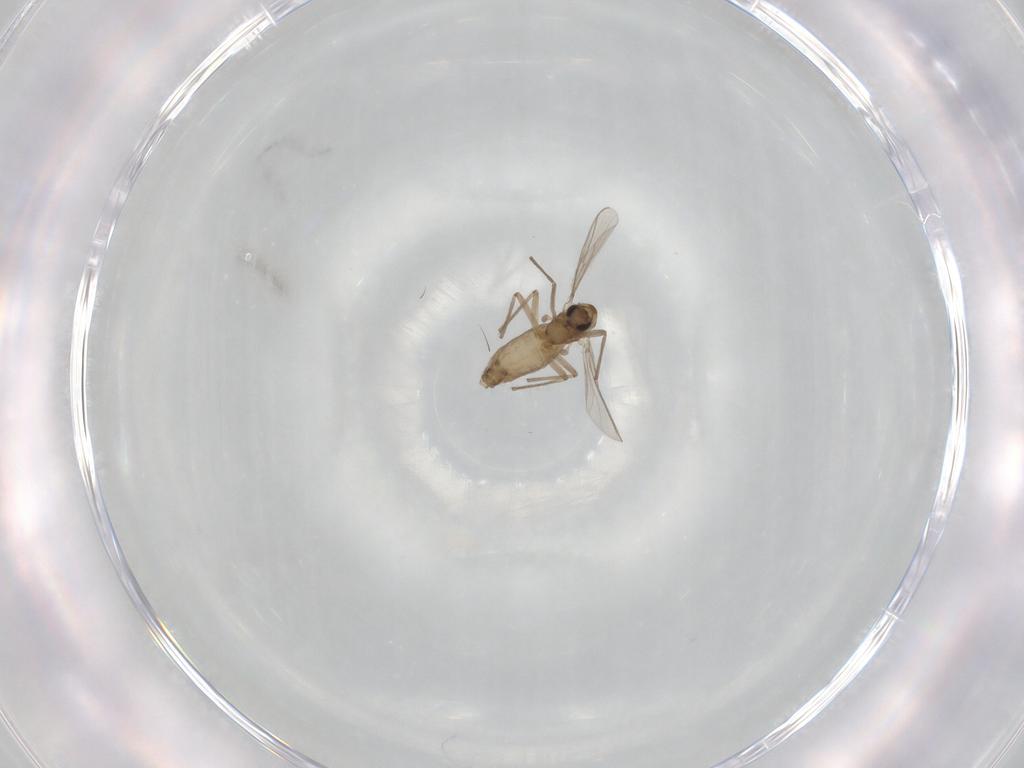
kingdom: Animalia
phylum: Arthropoda
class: Insecta
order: Diptera
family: Chironomidae
